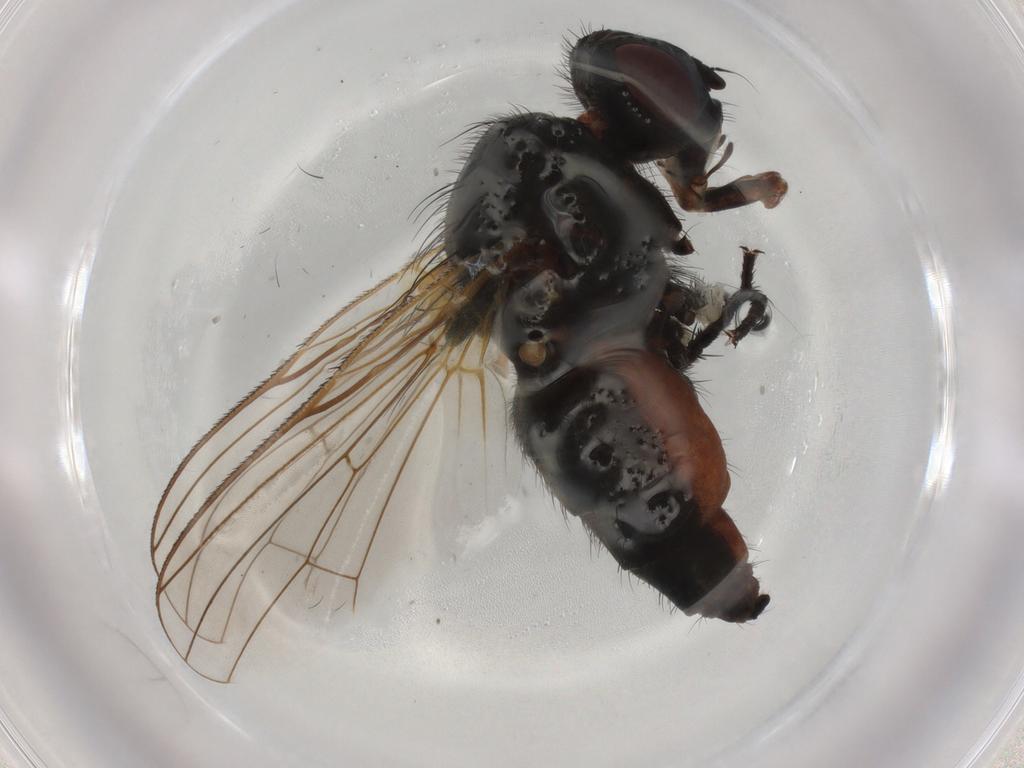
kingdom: Animalia
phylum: Arthropoda
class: Insecta
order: Diptera
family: Anthomyiidae
